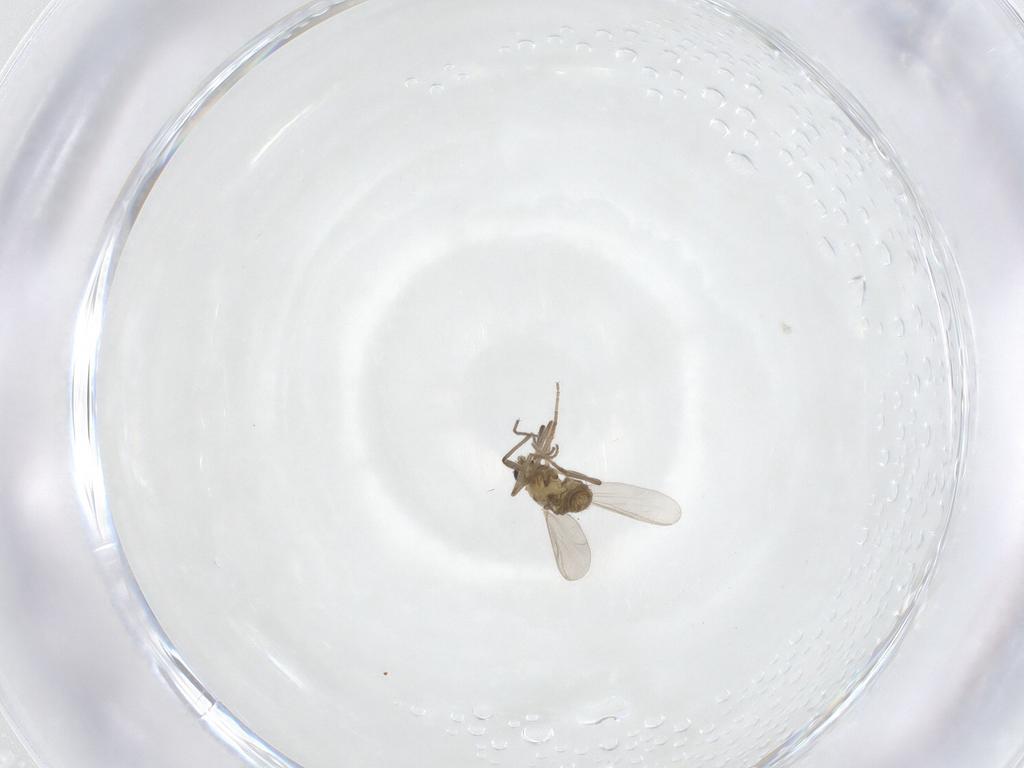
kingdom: Animalia
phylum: Arthropoda
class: Insecta
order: Diptera
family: Chironomidae
